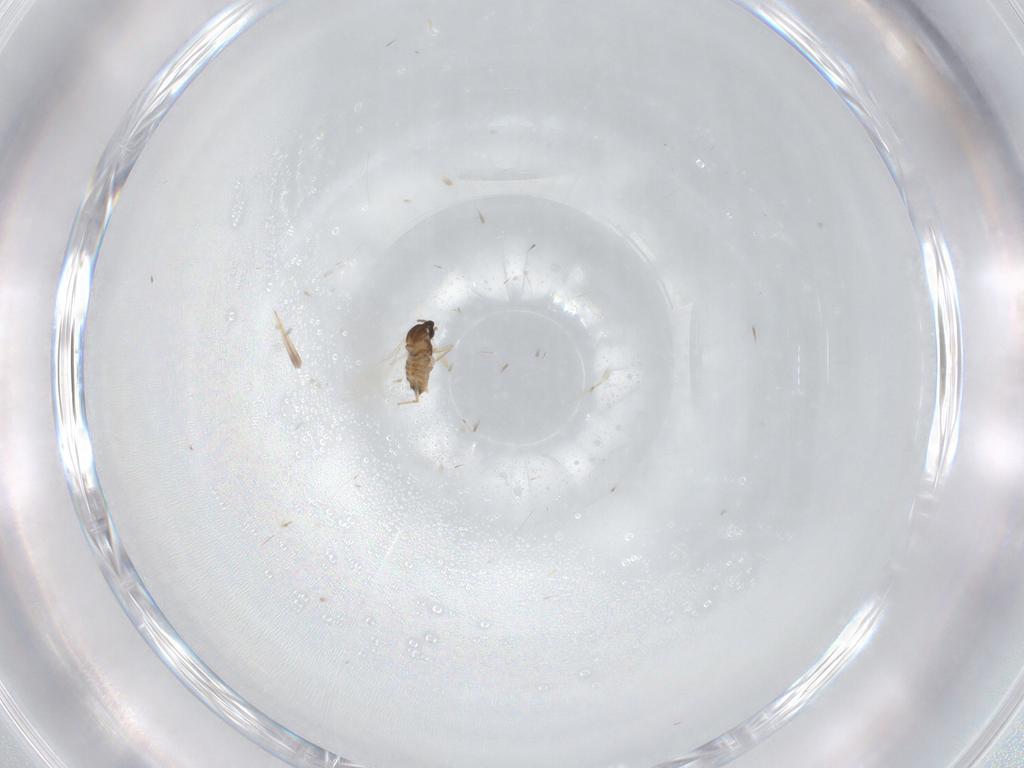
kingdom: Animalia
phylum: Arthropoda
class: Insecta
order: Diptera
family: Cecidomyiidae
